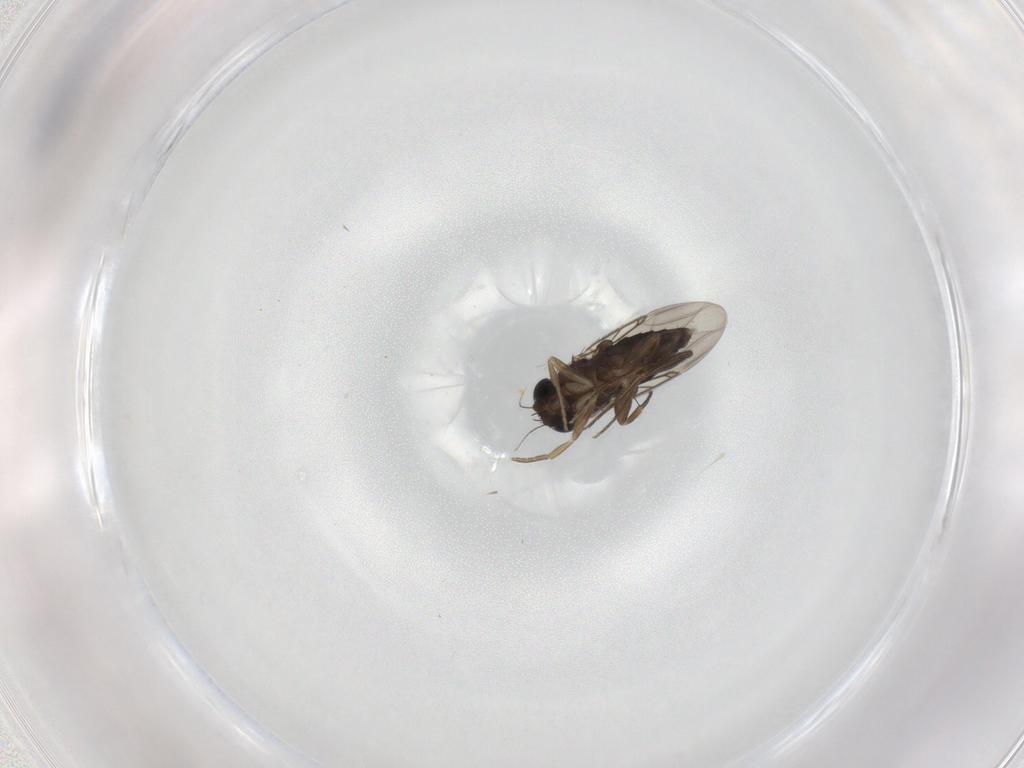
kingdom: Animalia
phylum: Arthropoda
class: Insecta
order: Diptera
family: Phoridae
